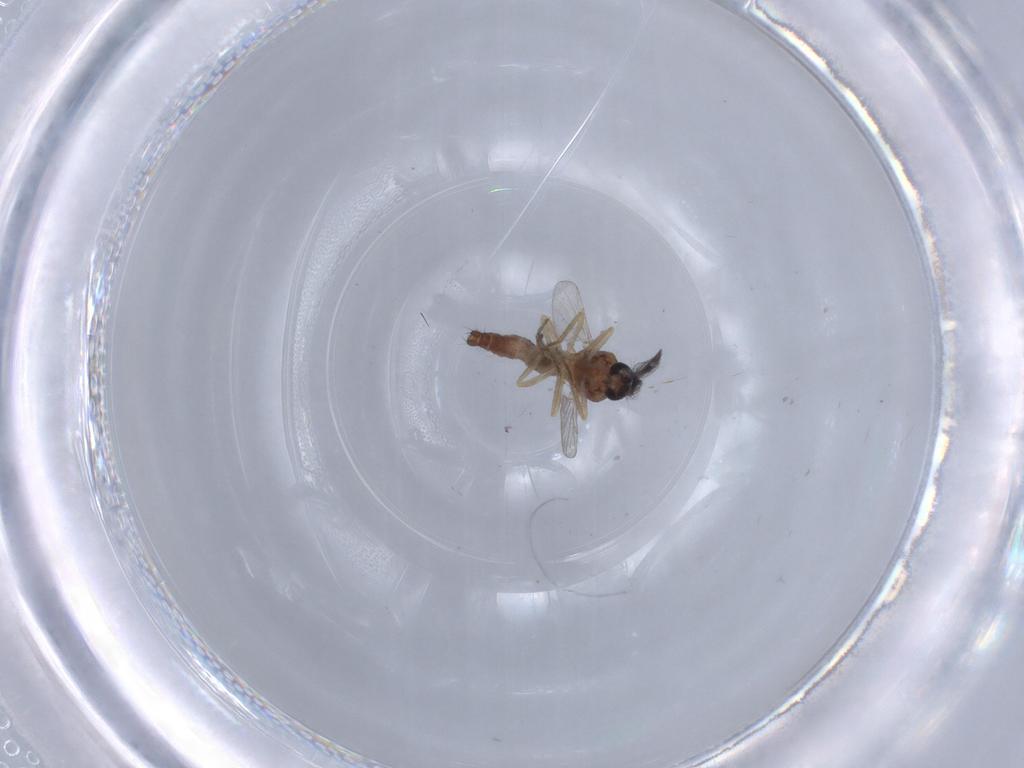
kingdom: Animalia
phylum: Arthropoda
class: Insecta
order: Diptera
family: Ceratopogonidae
